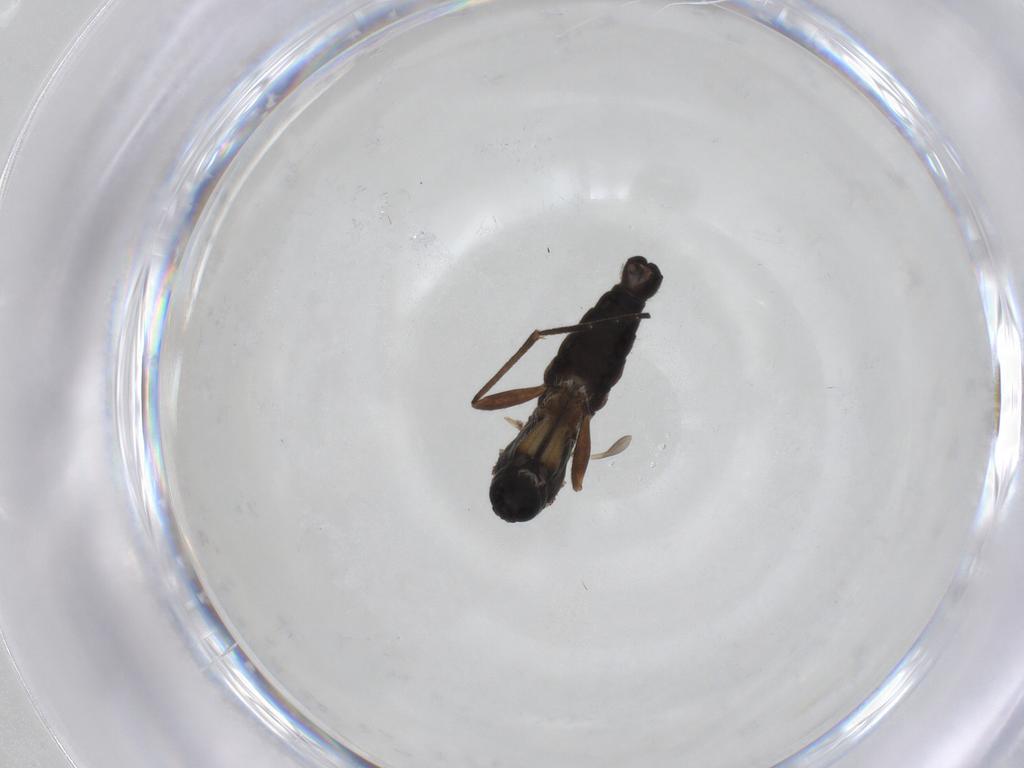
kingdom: Animalia
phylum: Arthropoda
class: Insecta
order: Diptera
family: Sciaridae
